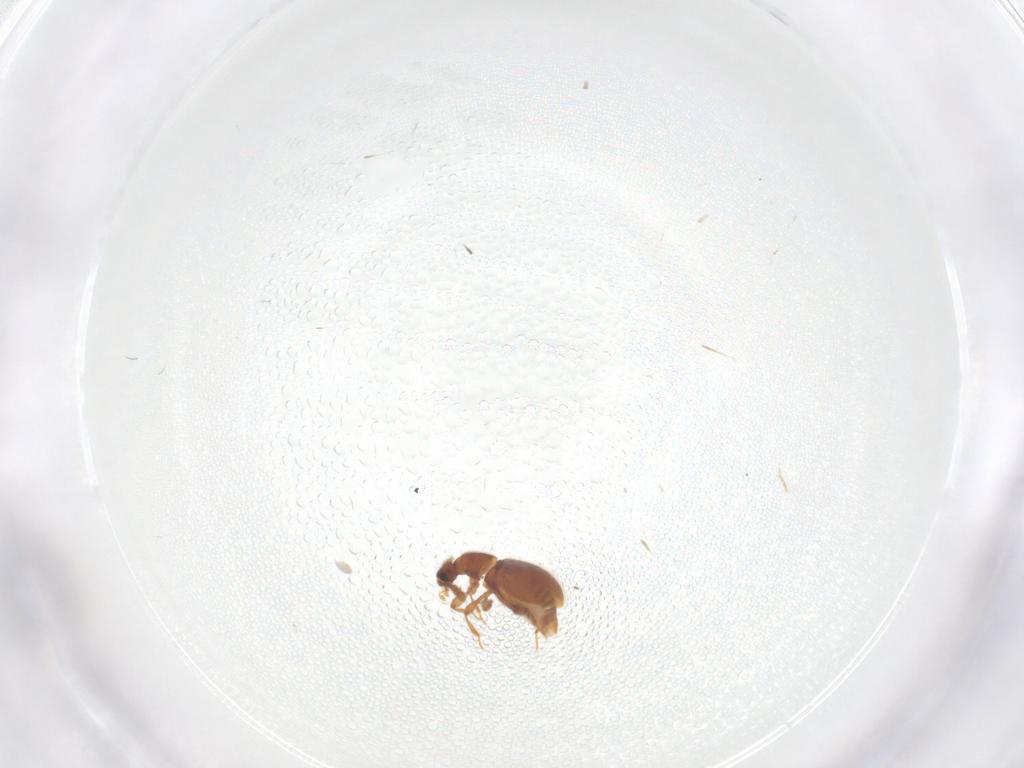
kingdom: Animalia
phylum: Arthropoda
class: Insecta
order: Coleoptera
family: Staphylinidae
